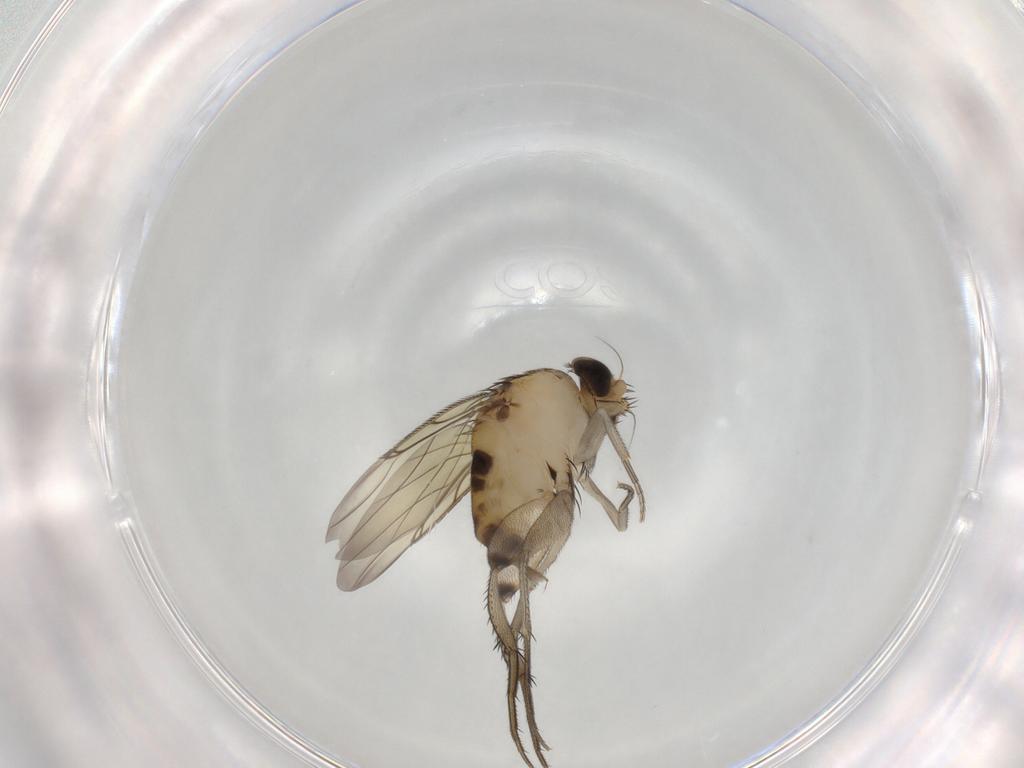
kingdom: Animalia
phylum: Arthropoda
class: Insecta
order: Diptera
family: Phoridae
